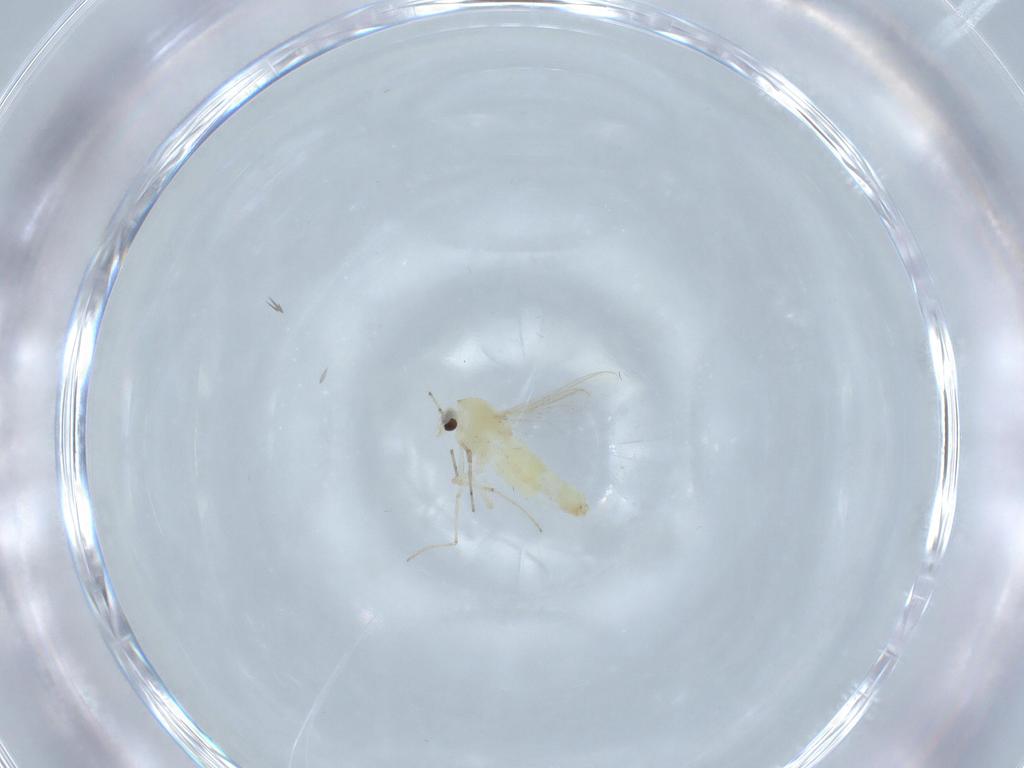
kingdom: Animalia
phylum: Arthropoda
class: Insecta
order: Diptera
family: Chironomidae
